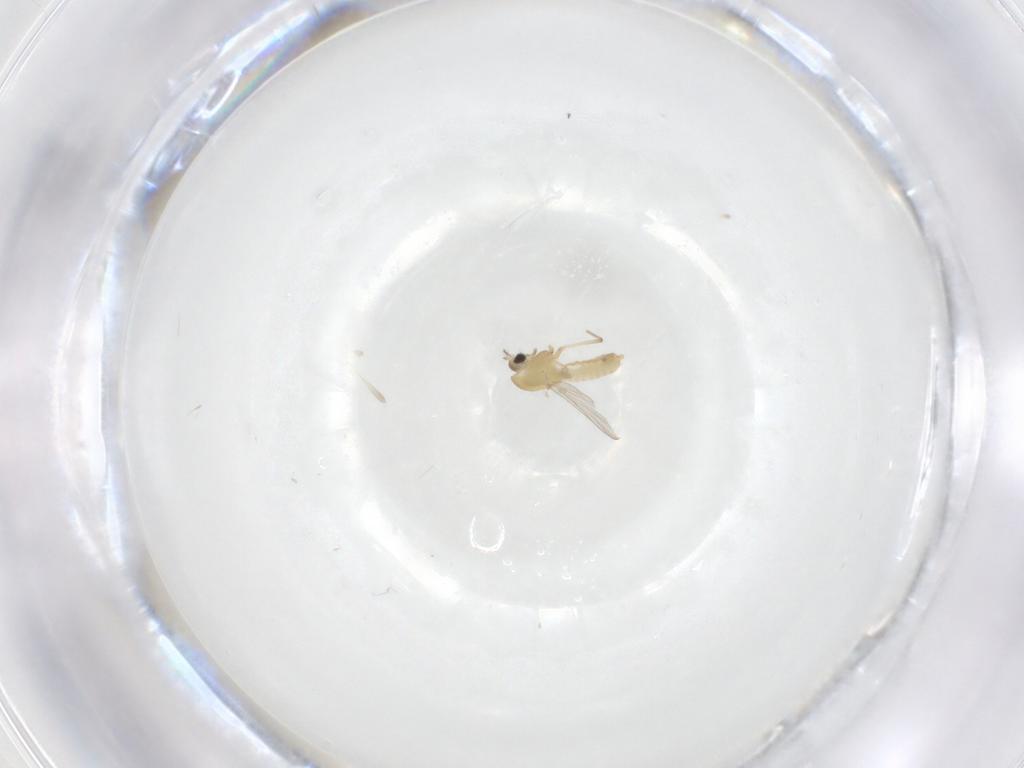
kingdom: Animalia
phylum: Arthropoda
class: Insecta
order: Diptera
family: Chironomidae
